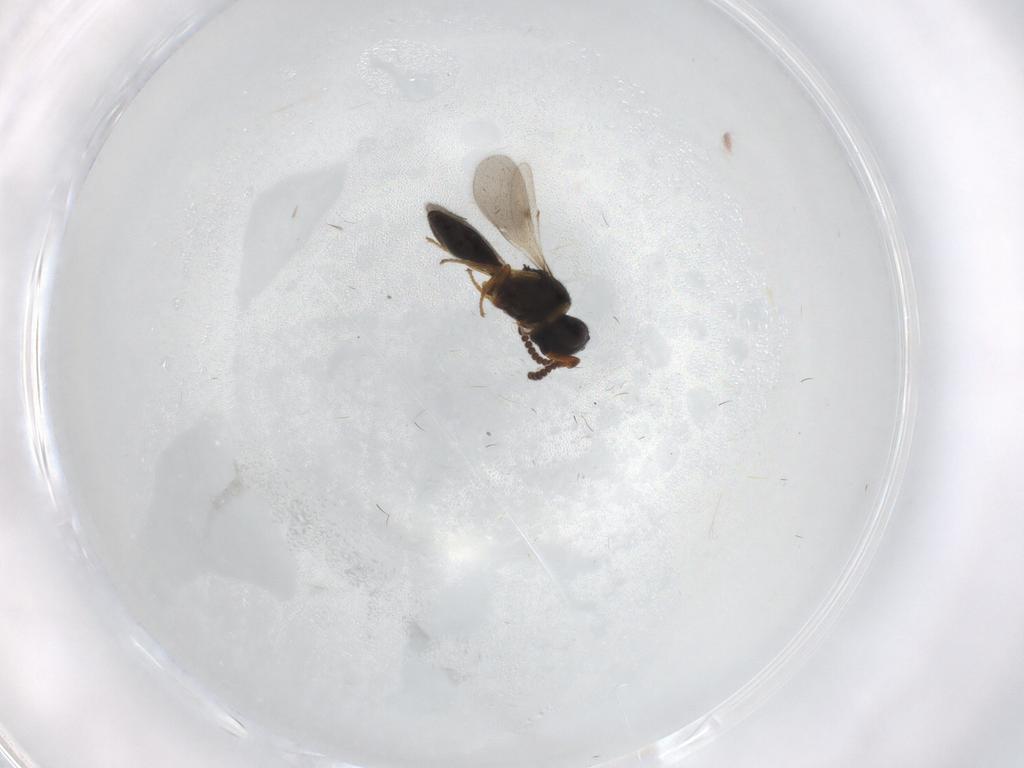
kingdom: Animalia
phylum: Arthropoda
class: Insecta
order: Hymenoptera
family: Scelionidae
